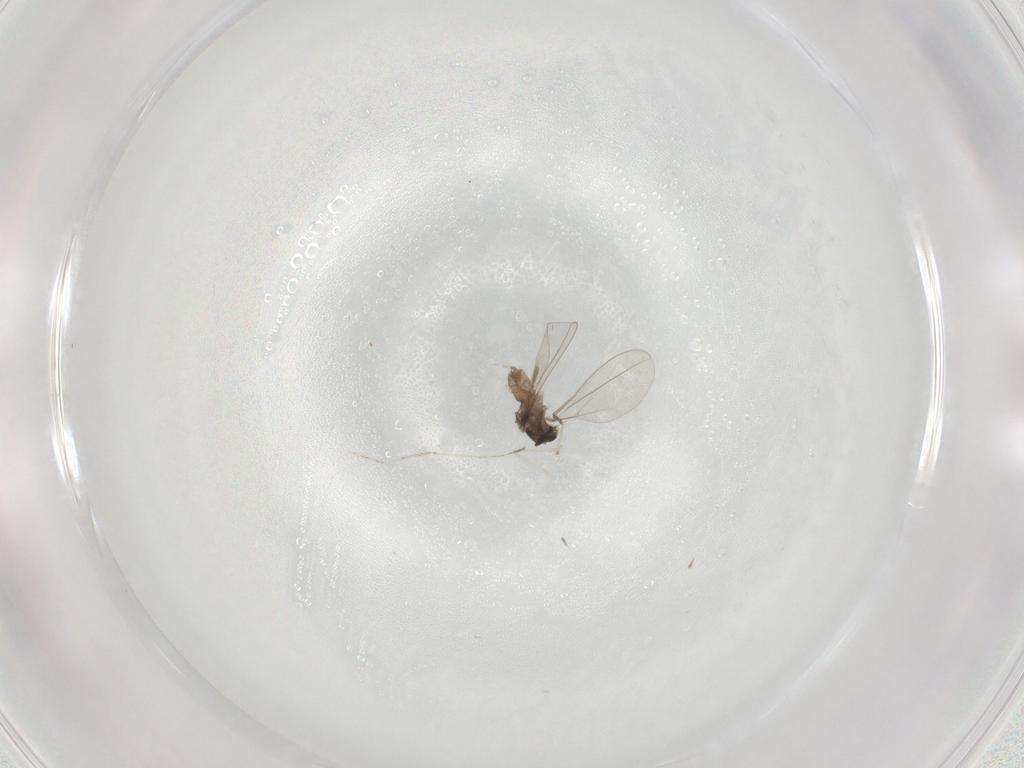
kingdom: Animalia
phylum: Arthropoda
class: Insecta
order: Diptera
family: Cecidomyiidae
